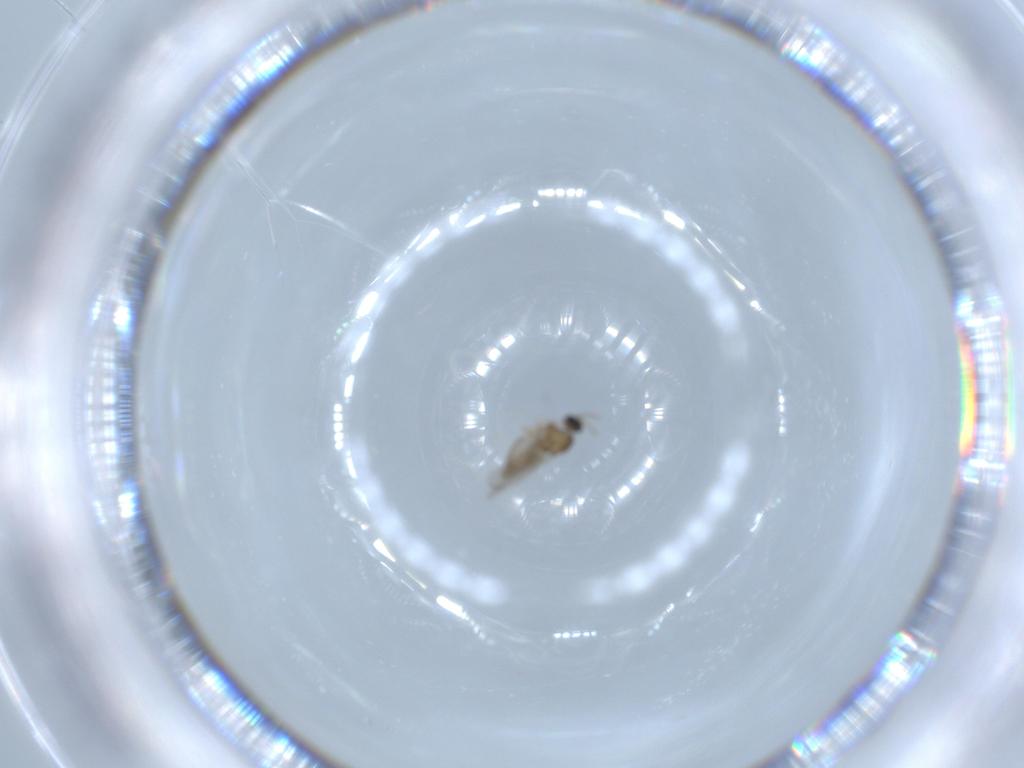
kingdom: Animalia
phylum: Arthropoda
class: Insecta
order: Diptera
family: Cecidomyiidae
